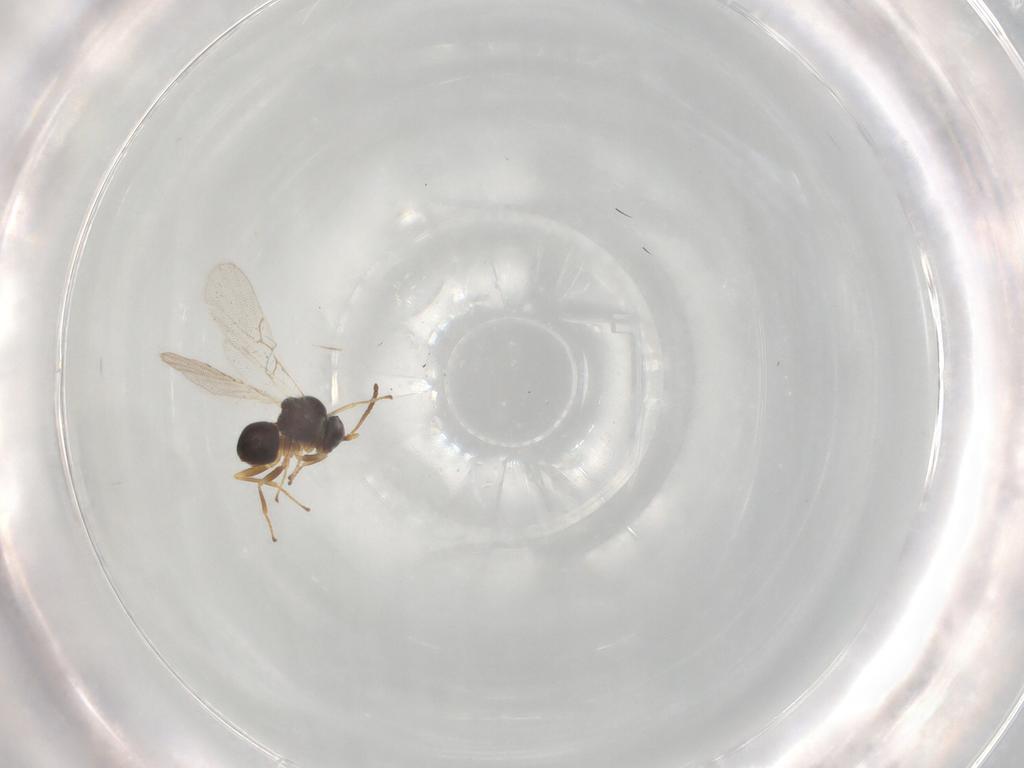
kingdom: Animalia
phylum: Arthropoda
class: Insecta
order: Hymenoptera
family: Figitidae
